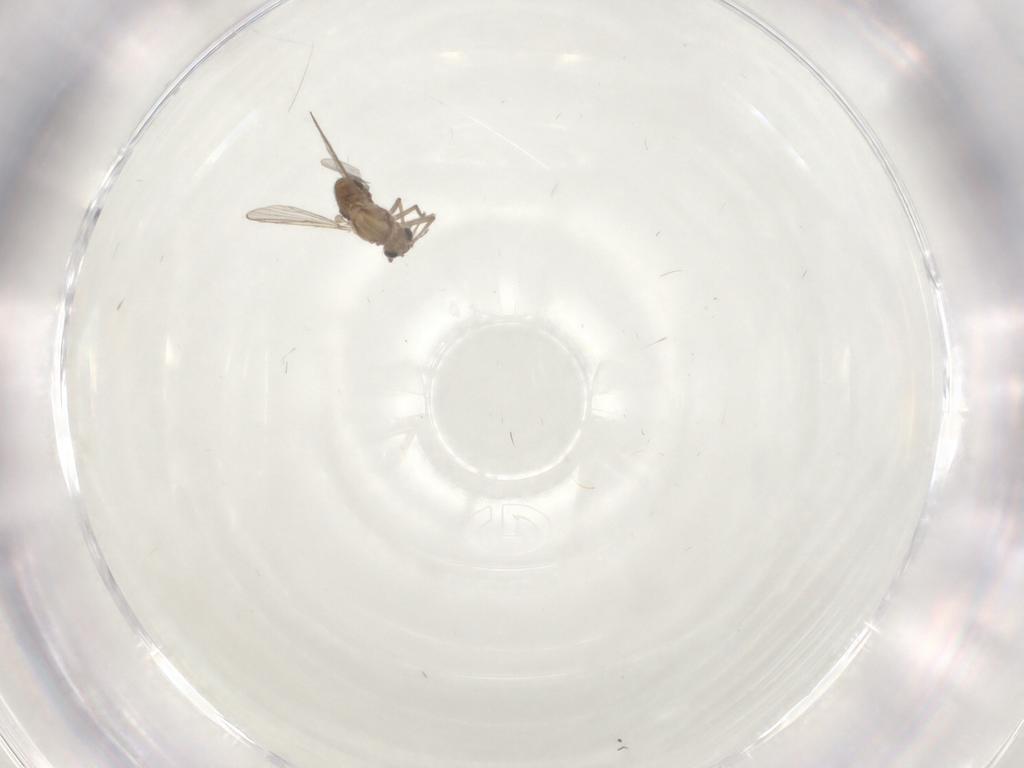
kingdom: Animalia
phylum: Arthropoda
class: Insecta
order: Diptera
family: Chironomidae
